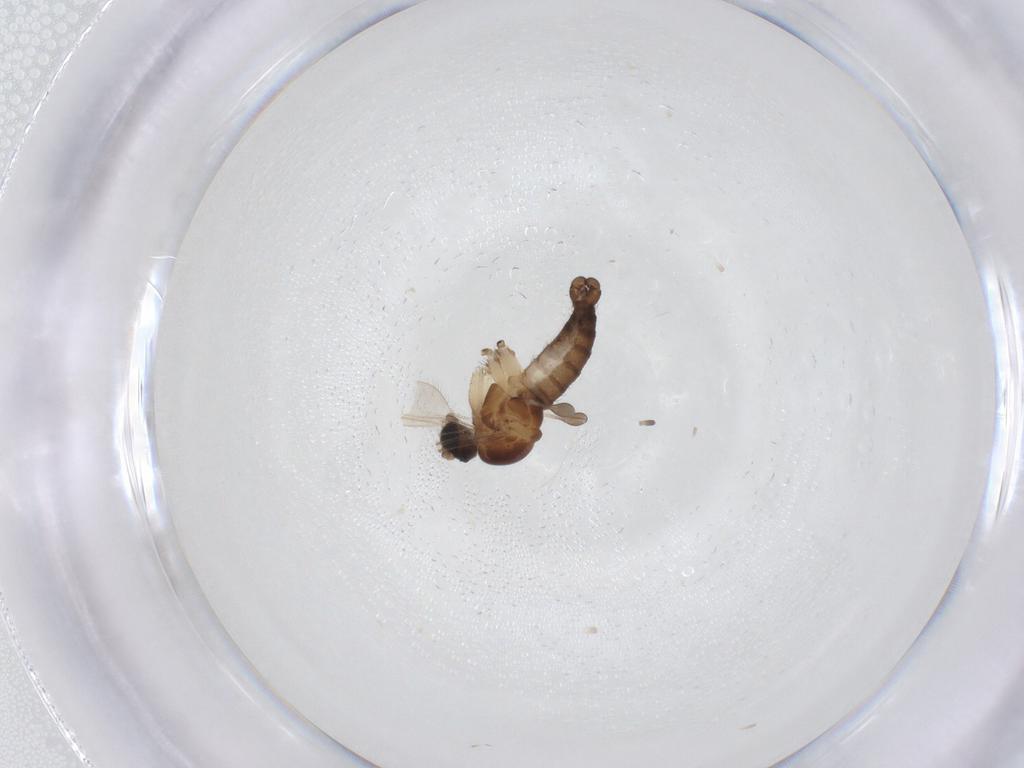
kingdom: Animalia
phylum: Arthropoda
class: Insecta
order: Diptera
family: Sciaridae
